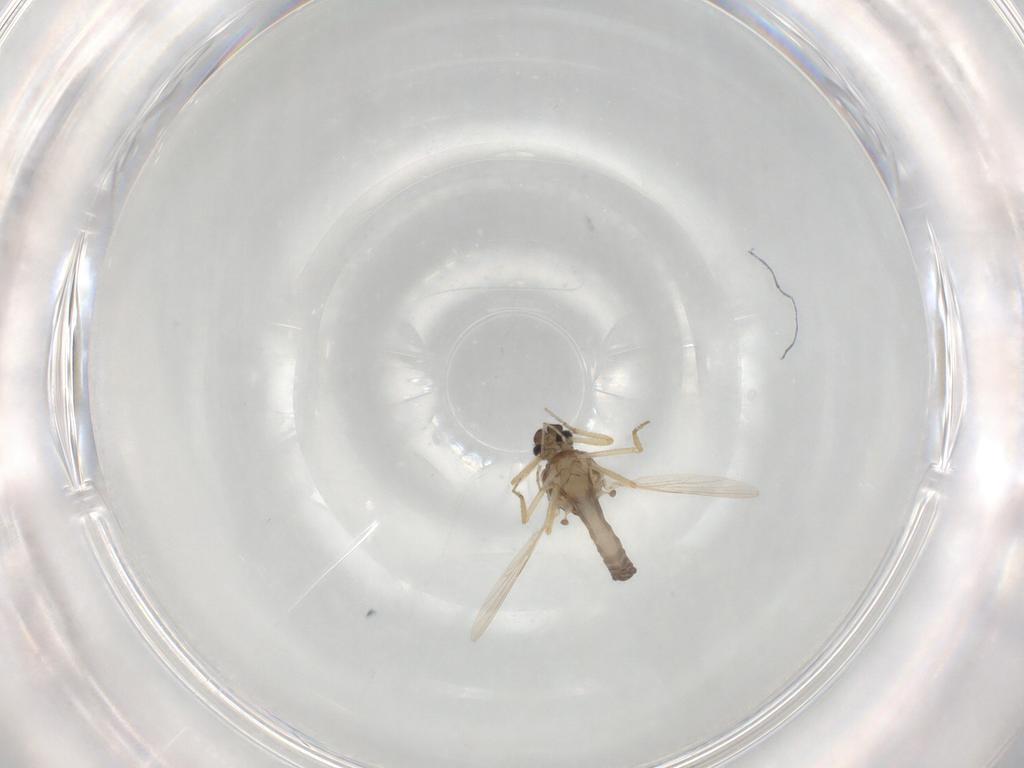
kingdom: Animalia
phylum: Arthropoda
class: Insecta
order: Diptera
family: Ceratopogonidae
